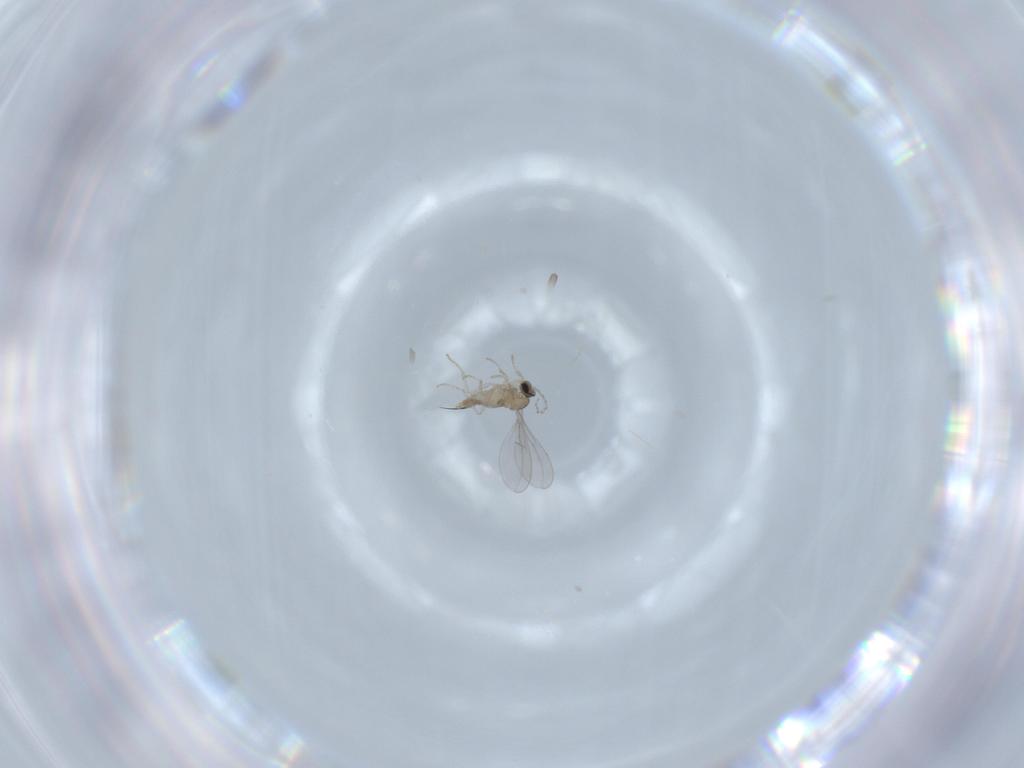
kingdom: Animalia
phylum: Arthropoda
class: Insecta
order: Diptera
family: Cecidomyiidae
